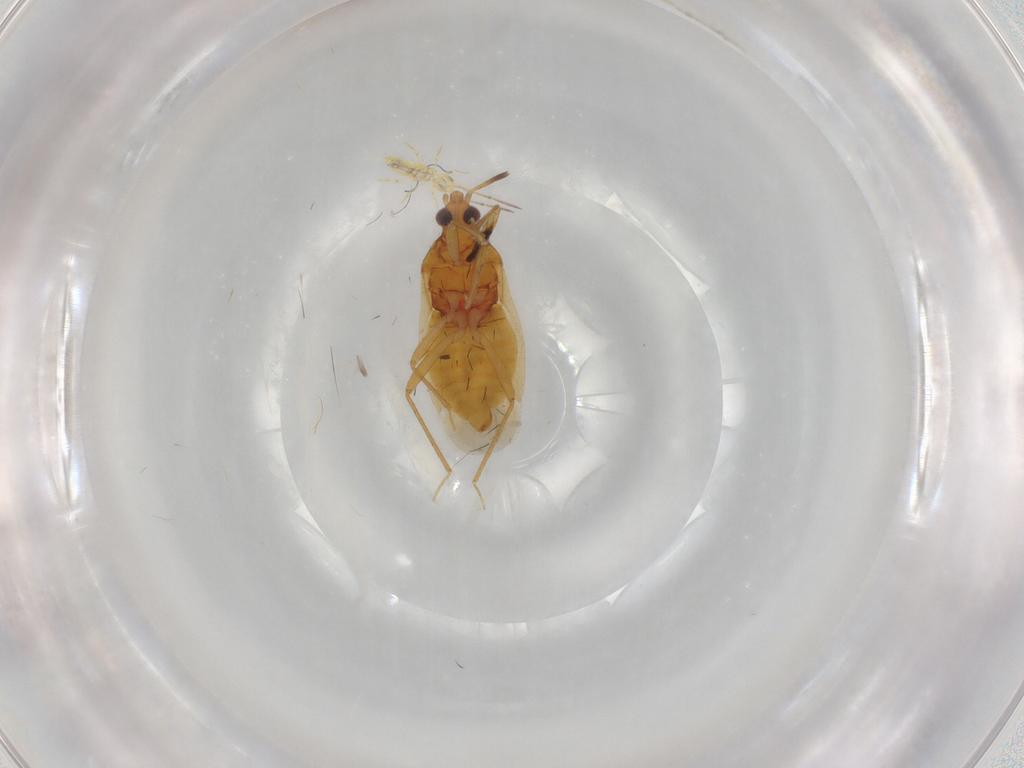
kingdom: Animalia
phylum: Arthropoda
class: Insecta
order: Hemiptera
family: Anthocoridae
